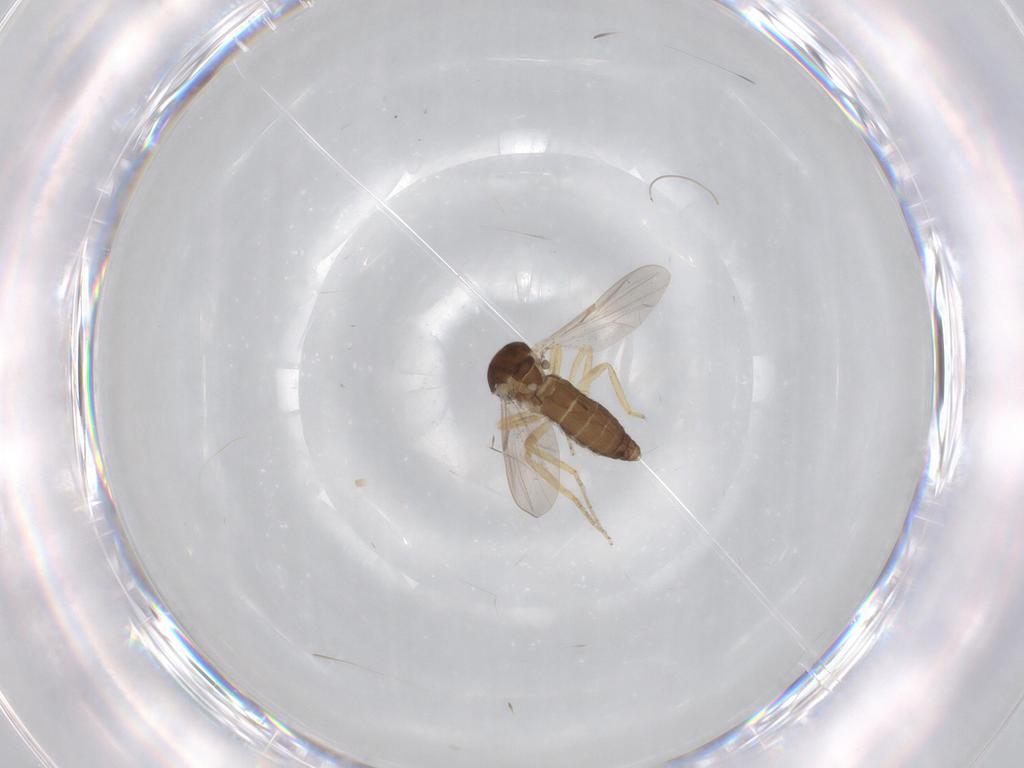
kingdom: Animalia
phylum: Arthropoda
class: Insecta
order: Diptera
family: Ceratopogonidae
